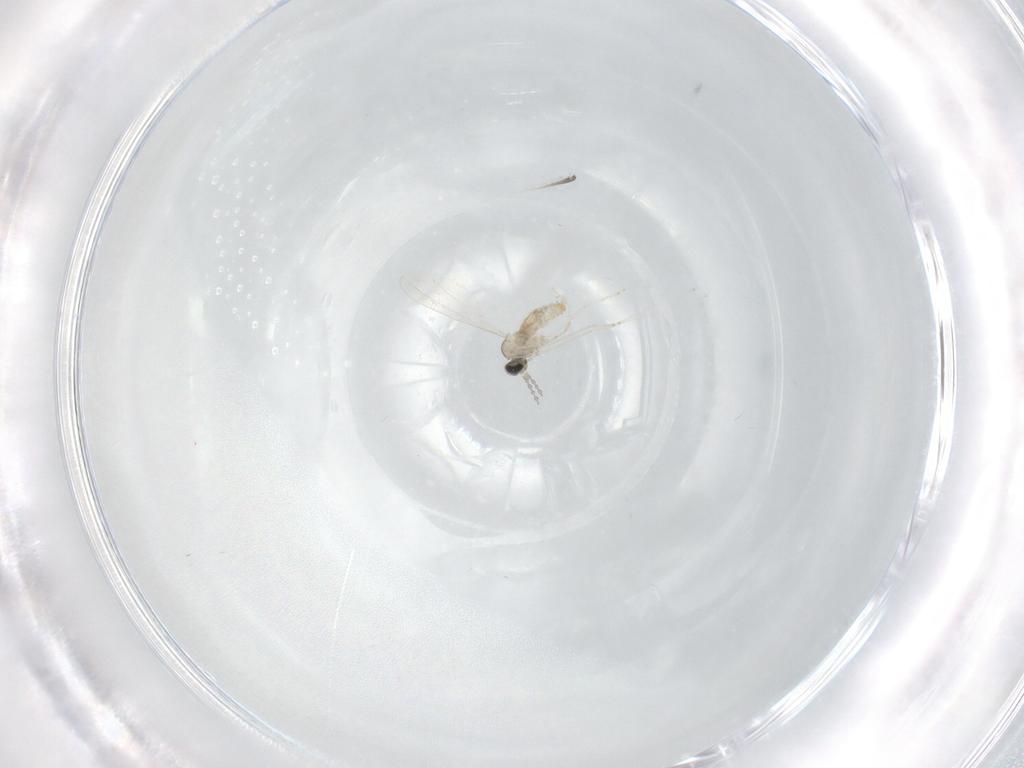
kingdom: Animalia
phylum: Arthropoda
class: Insecta
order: Diptera
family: Cecidomyiidae
